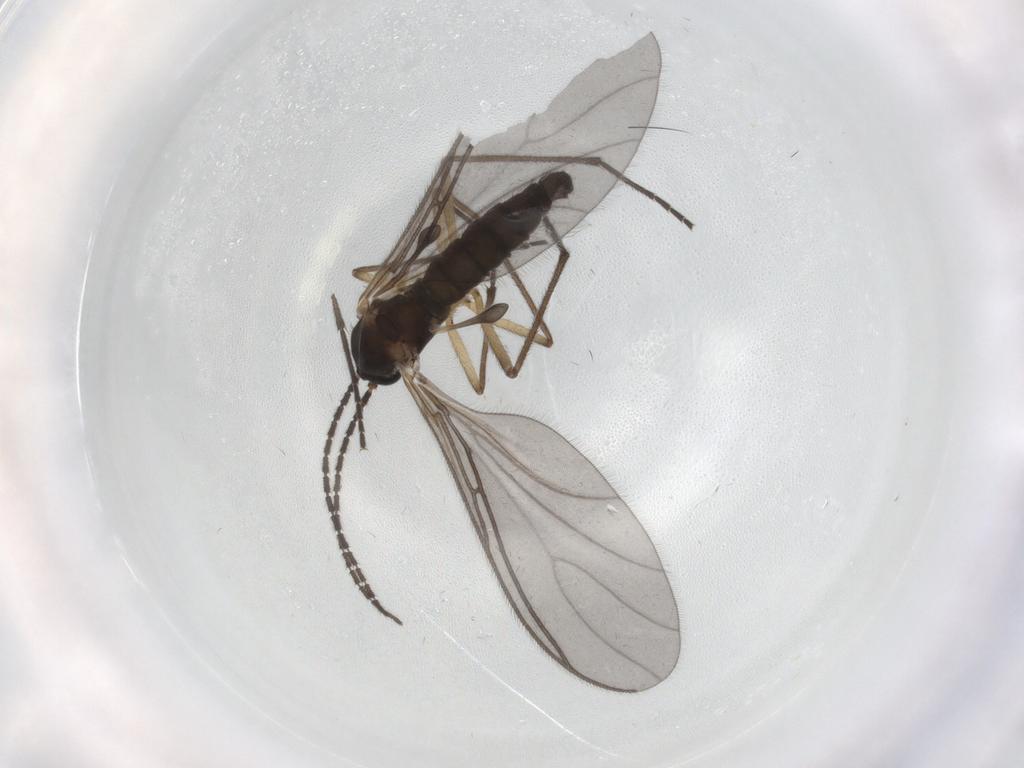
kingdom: Animalia
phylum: Arthropoda
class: Insecta
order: Diptera
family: Sciaridae
